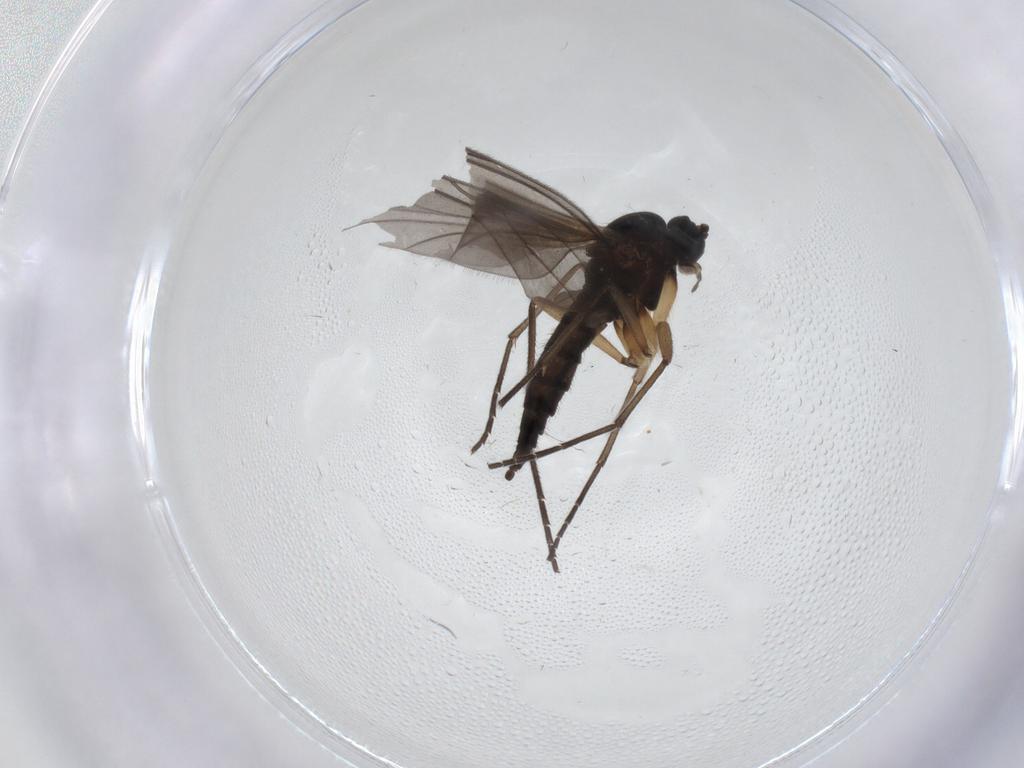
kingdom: Animalia
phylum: Arthropoda
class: Insecta
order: Diptera
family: Sciaridae
